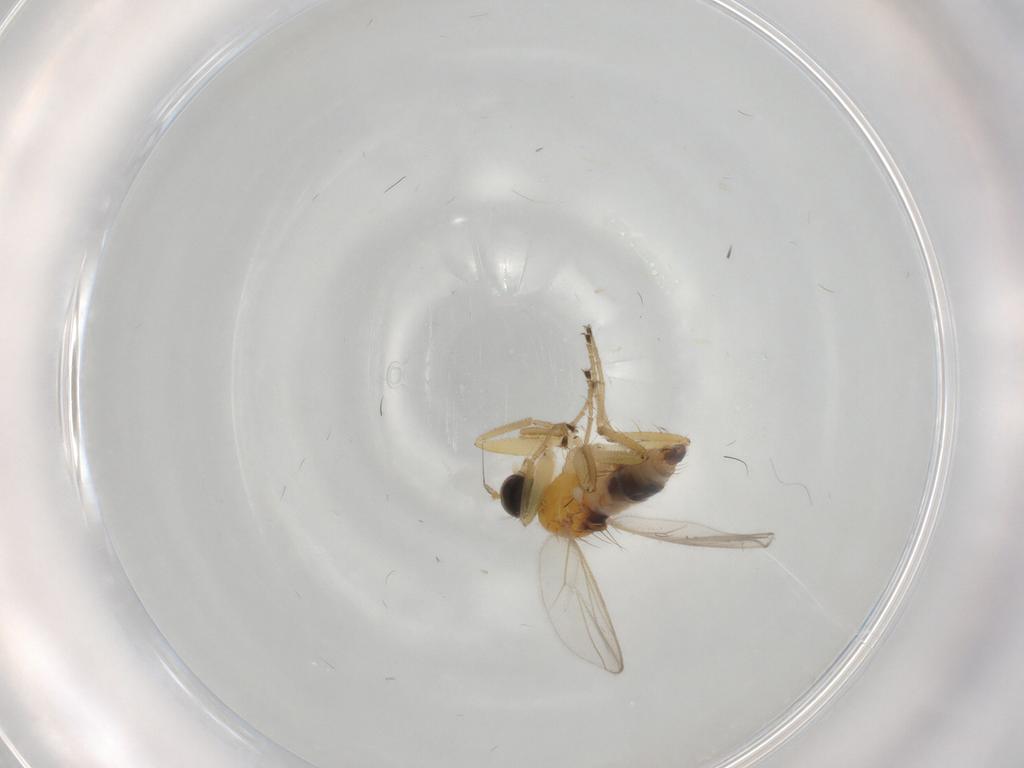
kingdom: Animalia
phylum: Arthropoda
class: Insecta
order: Diptera
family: Hybotidae
